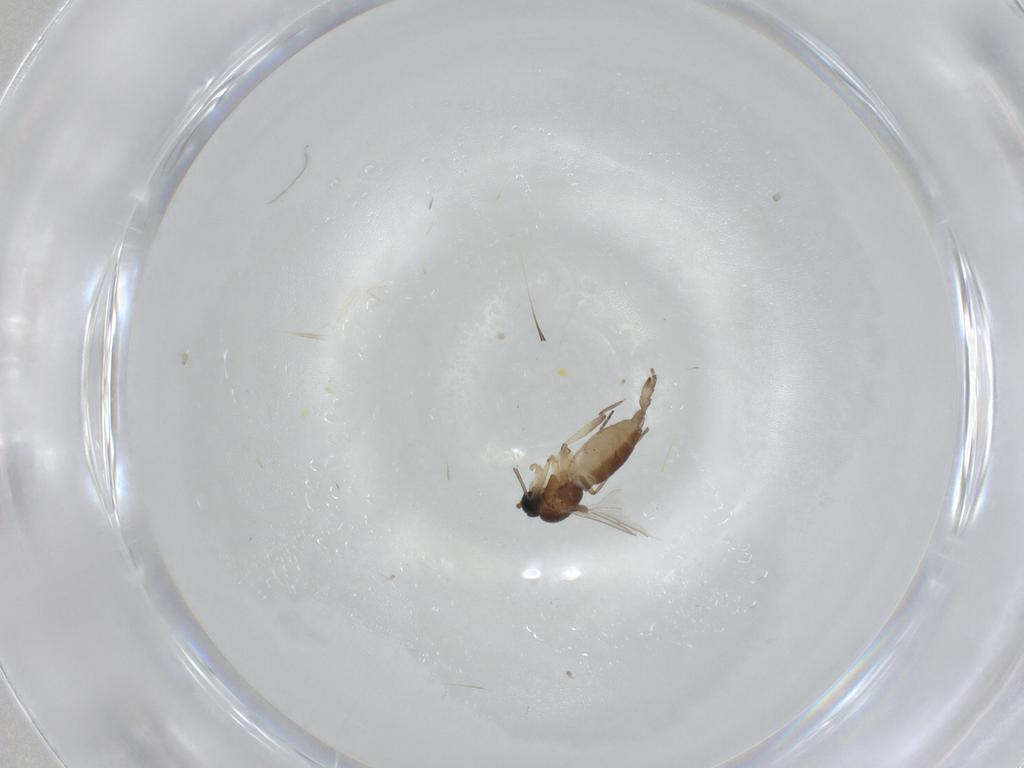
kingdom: Animalia
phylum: Arthropoda
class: Insecta
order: Diptera
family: Sciaridae
